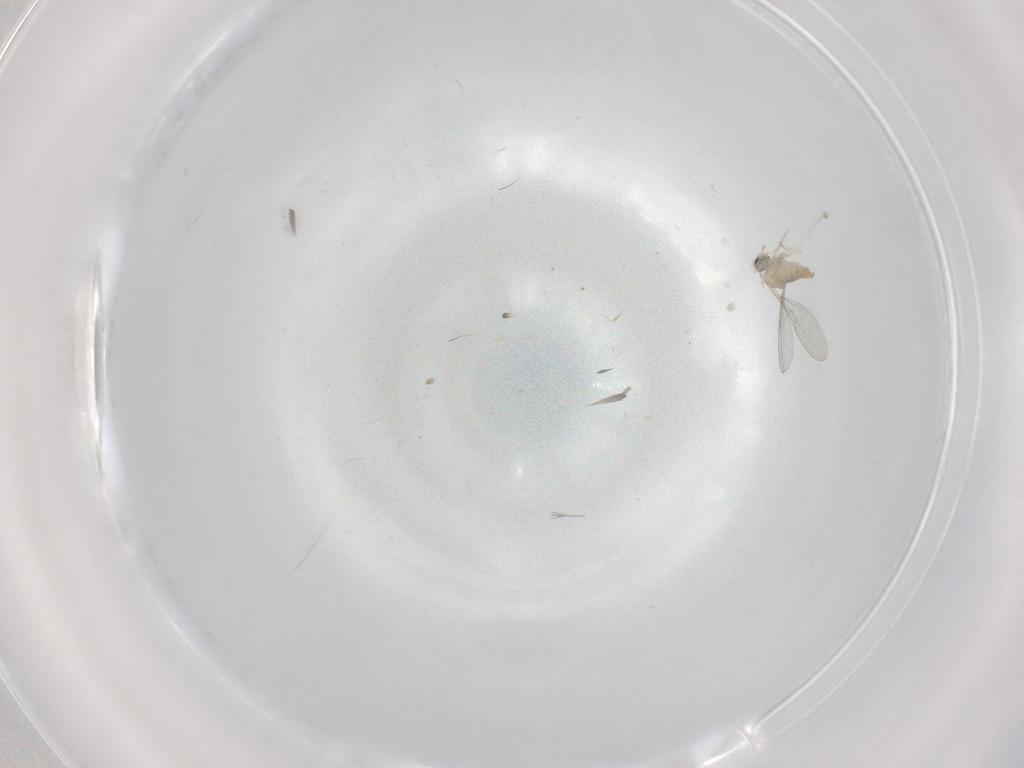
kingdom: Animalia
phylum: Arthropoda
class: Insecta
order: Diptera
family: Cecidomyiidae
